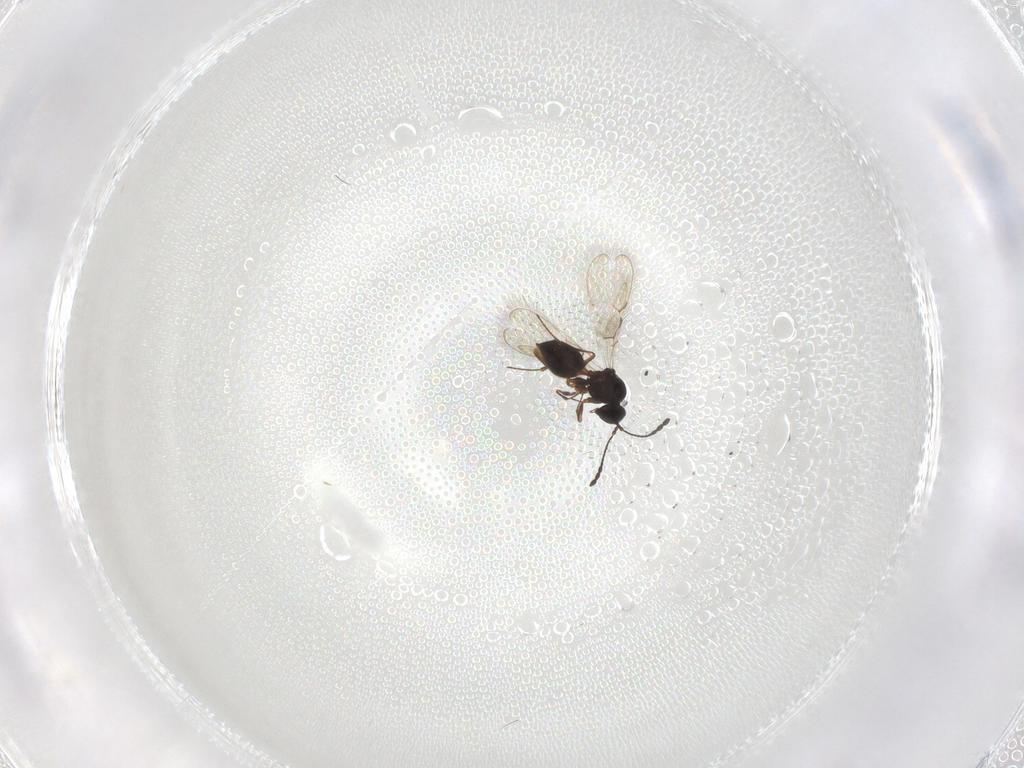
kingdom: Animalia
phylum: Arthropoda
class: Insecta
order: Hymenoptera
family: Figitidae
